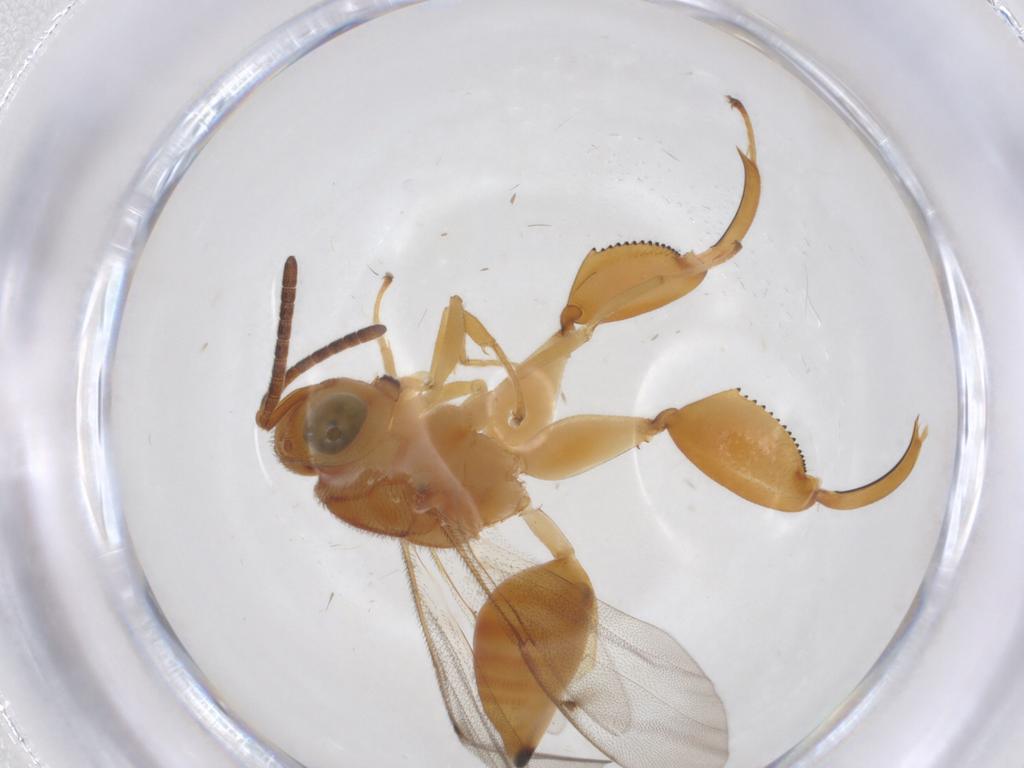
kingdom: Animalia
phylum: Arthropoda
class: Insecta
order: Hymenoptera
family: Chalcididae
